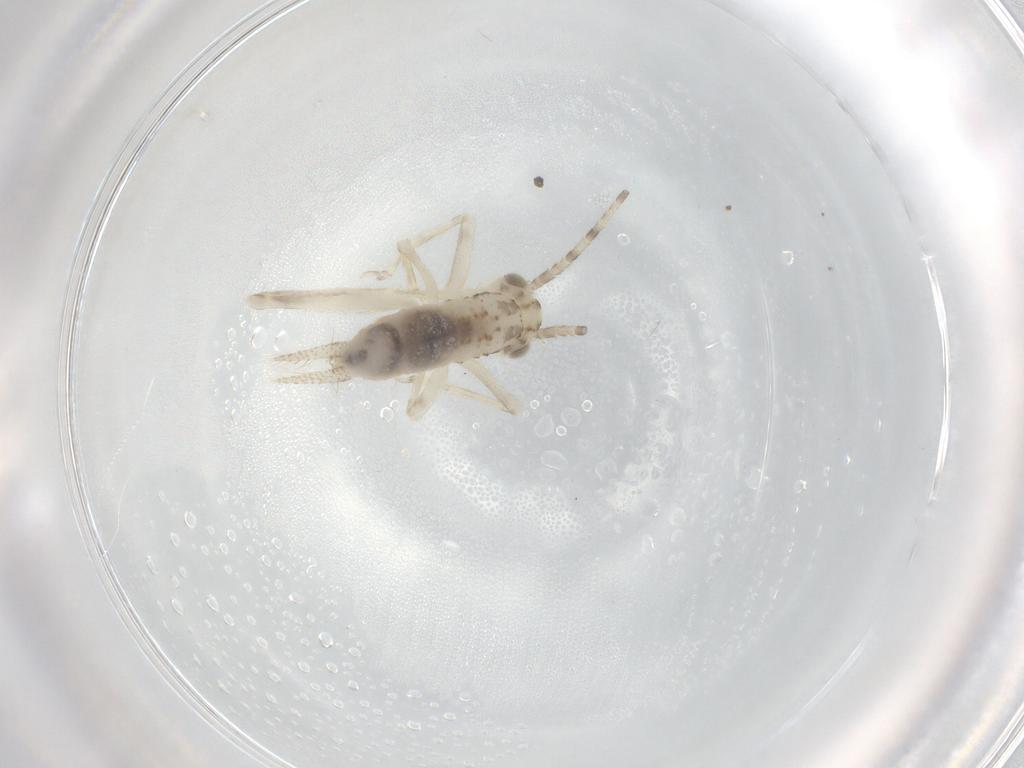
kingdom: Animalia
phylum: Arthropoda
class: Insecta
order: Orthoptera
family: Trigonidiidae
